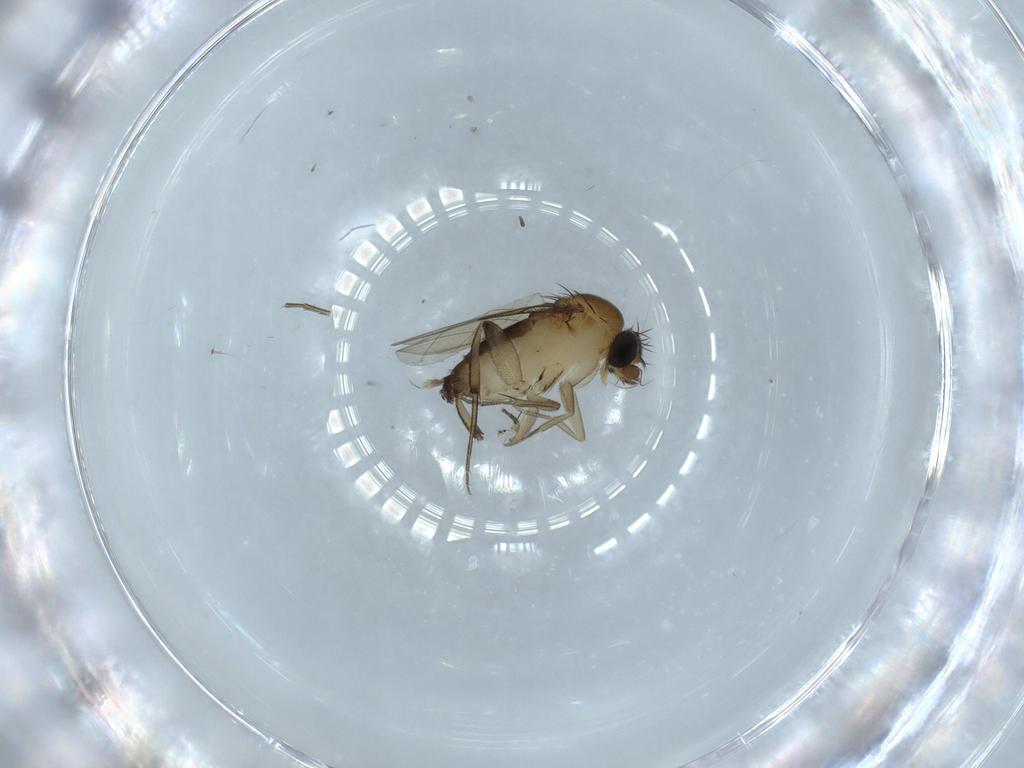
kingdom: Animalia
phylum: Arthropoda
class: Insecta
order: Diptera
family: Phoridae
